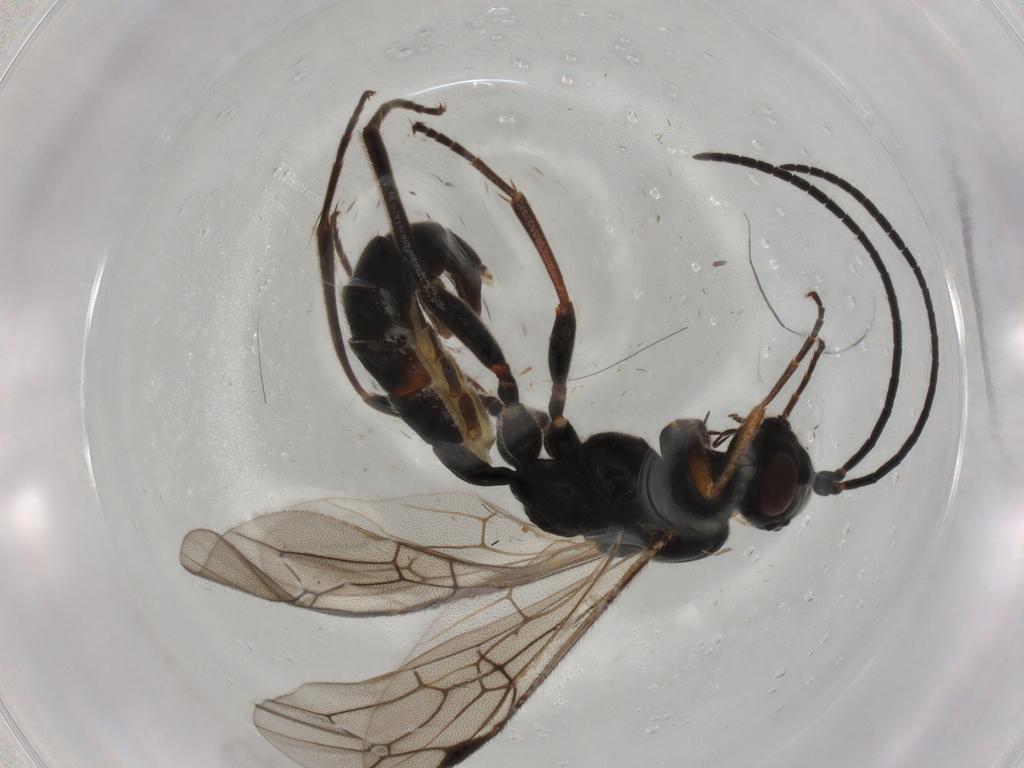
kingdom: Animalia
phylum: Arthropoda
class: Insecta
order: Hymenoptera
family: Ichneumonidae
